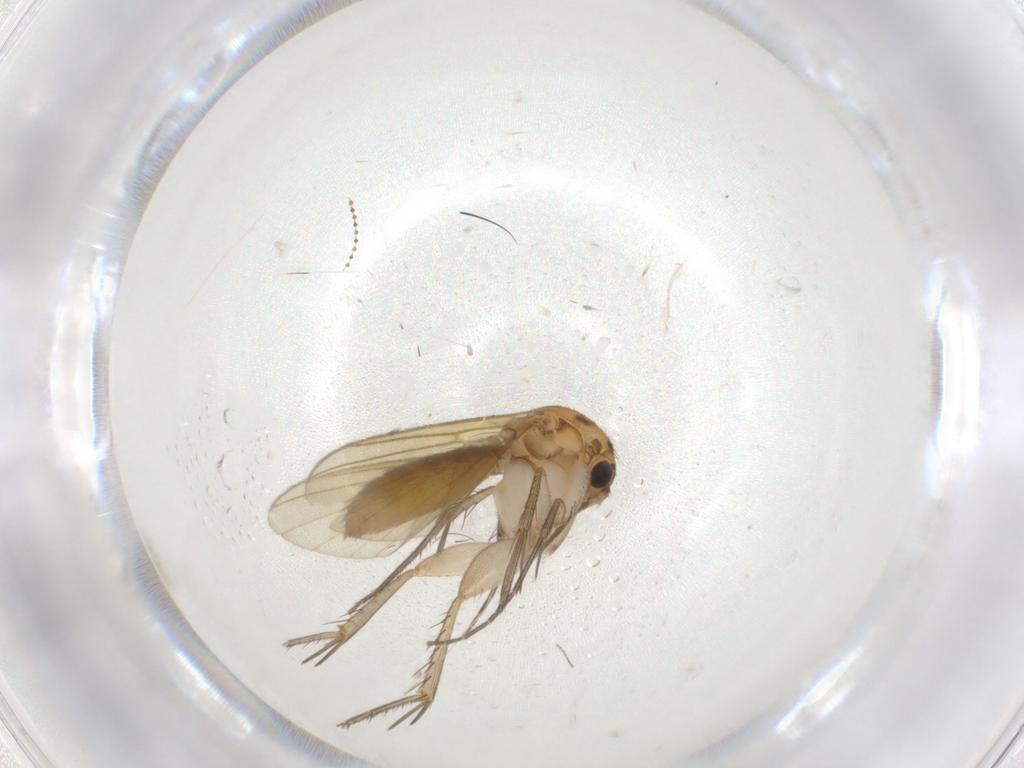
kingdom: Animalia
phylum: Arthropoda
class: Insecta
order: Diptera
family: Mycetophilidae
